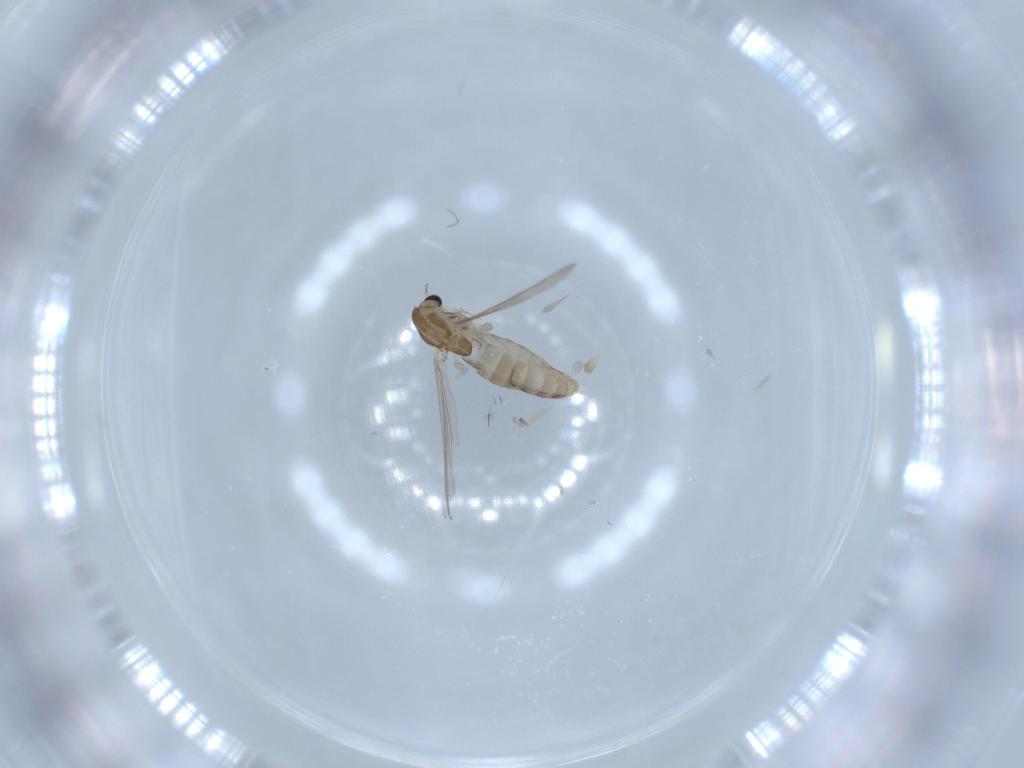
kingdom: Animalia
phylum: Arthropoda
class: Insecta
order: Diptera
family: Chironomidae
